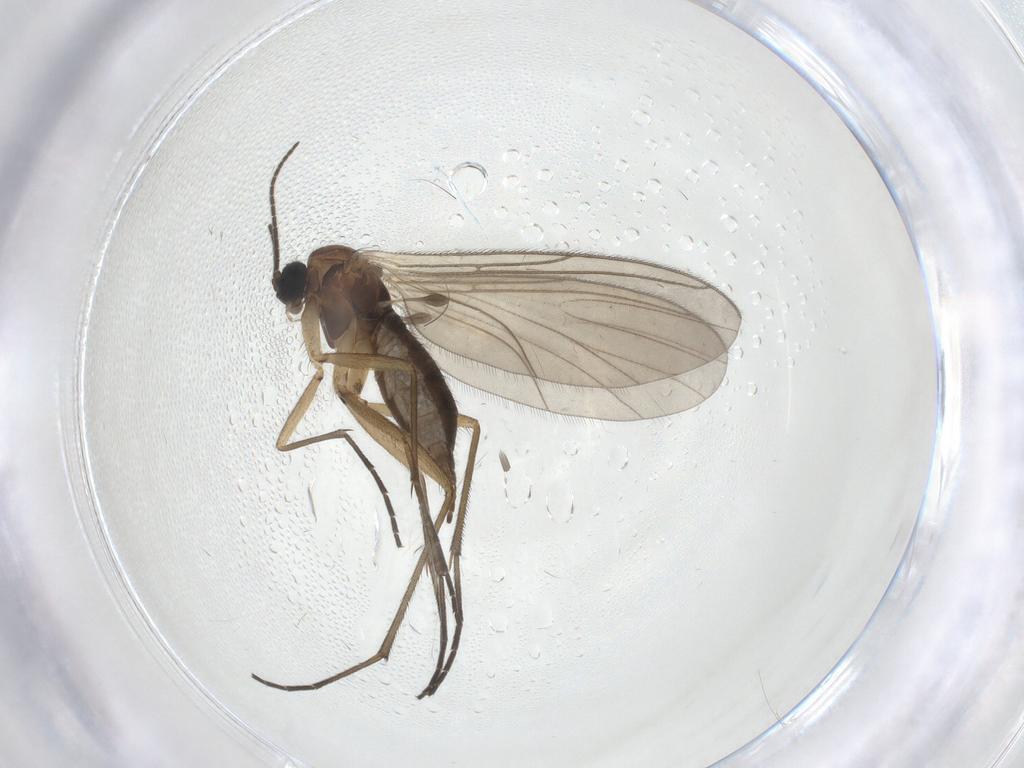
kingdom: Animalia
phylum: Arthropoda
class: Insecta
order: Diptera
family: Sciaridae
